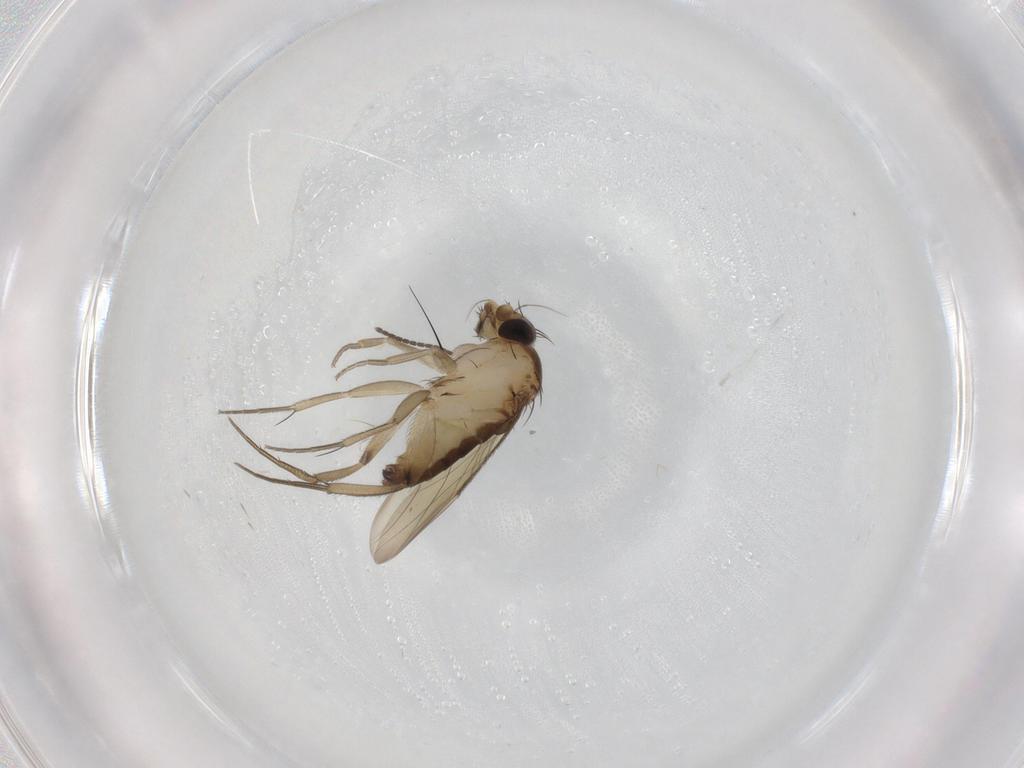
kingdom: Animalia
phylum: Arthropoda
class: Insecta
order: Diptera
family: Phoridae
